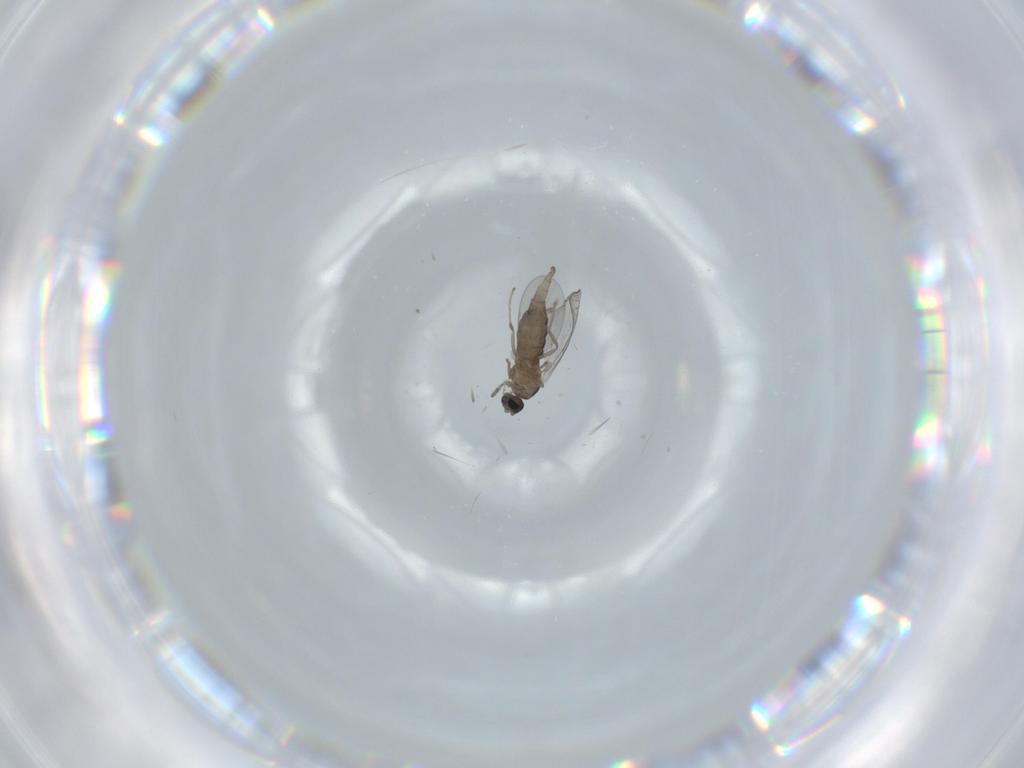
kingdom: Animalia
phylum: Arthropoda
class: Insecta
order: Diptera
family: Cecidomyiidae
